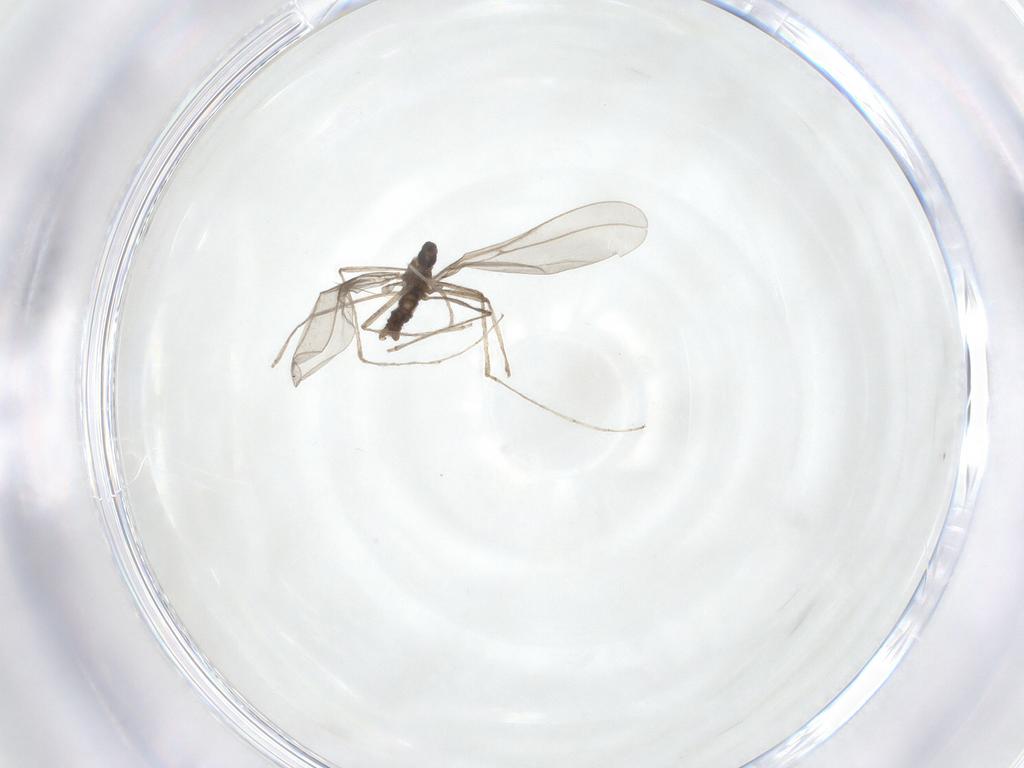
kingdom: Animalia
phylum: Arthropoda
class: Insecta
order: Diptera
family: Cecidomyiidae
